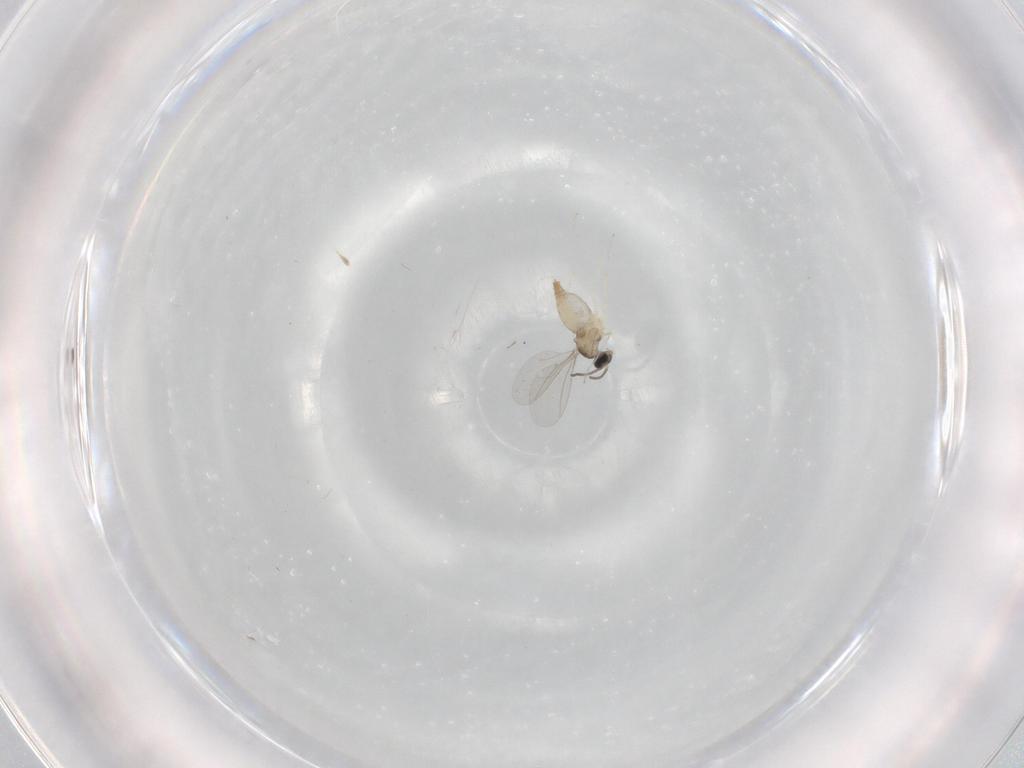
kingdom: Animalia
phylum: Arthropoda
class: Insecta
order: Diptera
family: Cecidomyiidae
